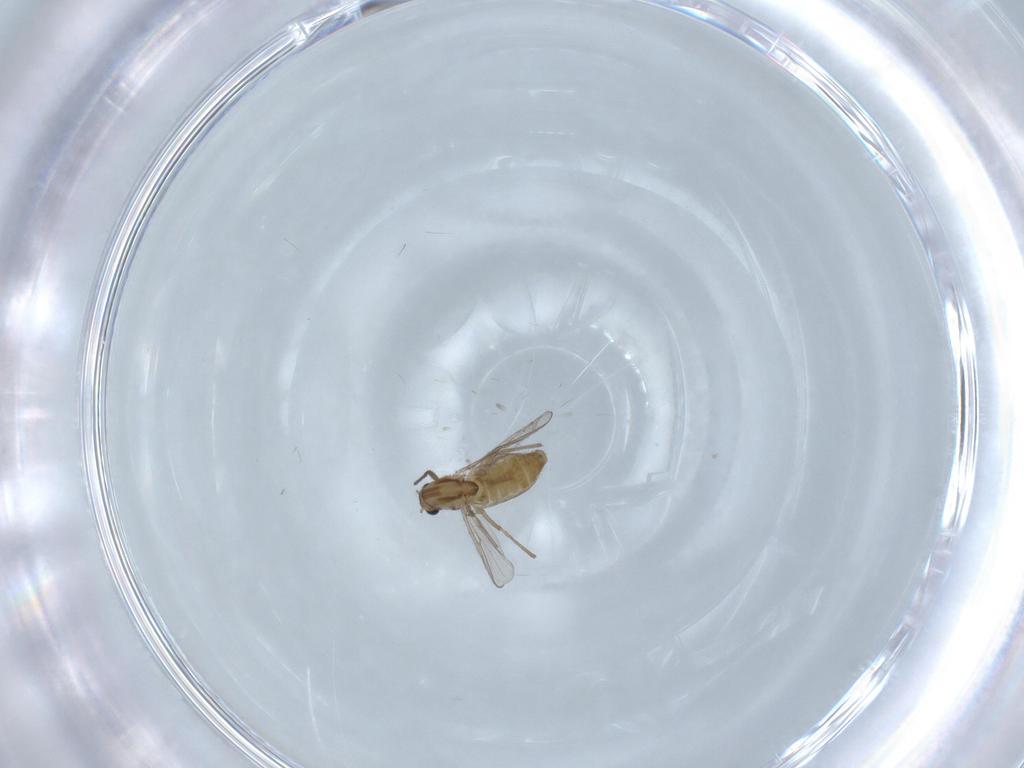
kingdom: Animalia
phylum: Arthropoda
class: Insecta
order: Diptera
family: Chironomidae
